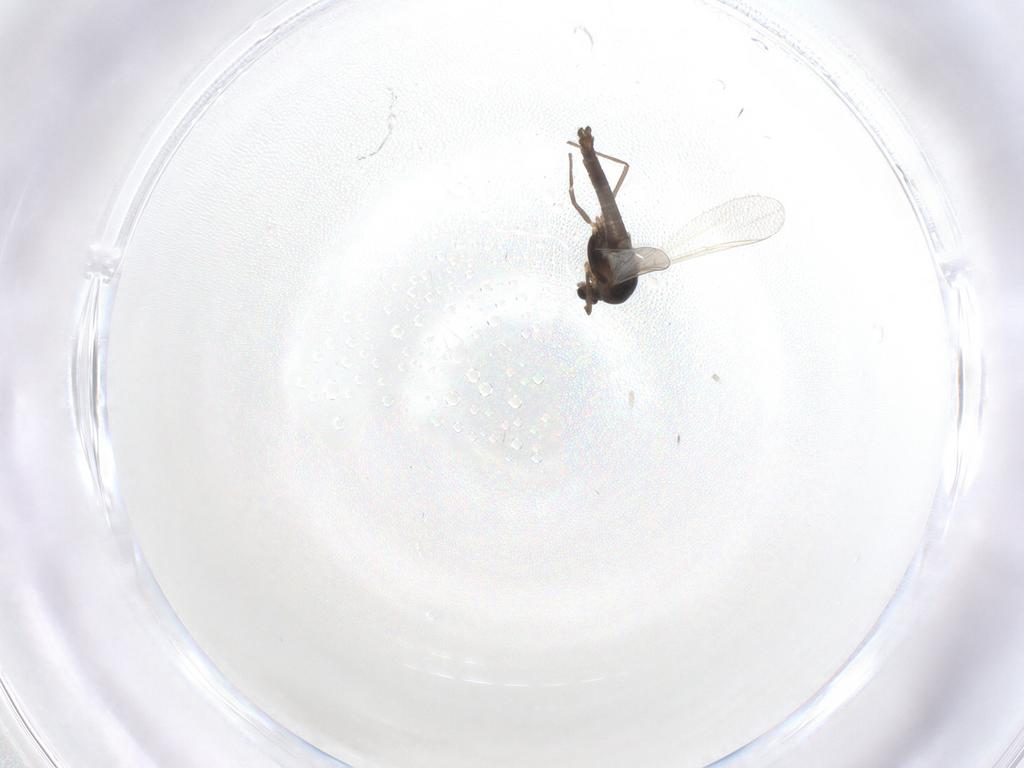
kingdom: Animalia
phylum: Arthropoda
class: Insecta
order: Diptera
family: Chironomidae
